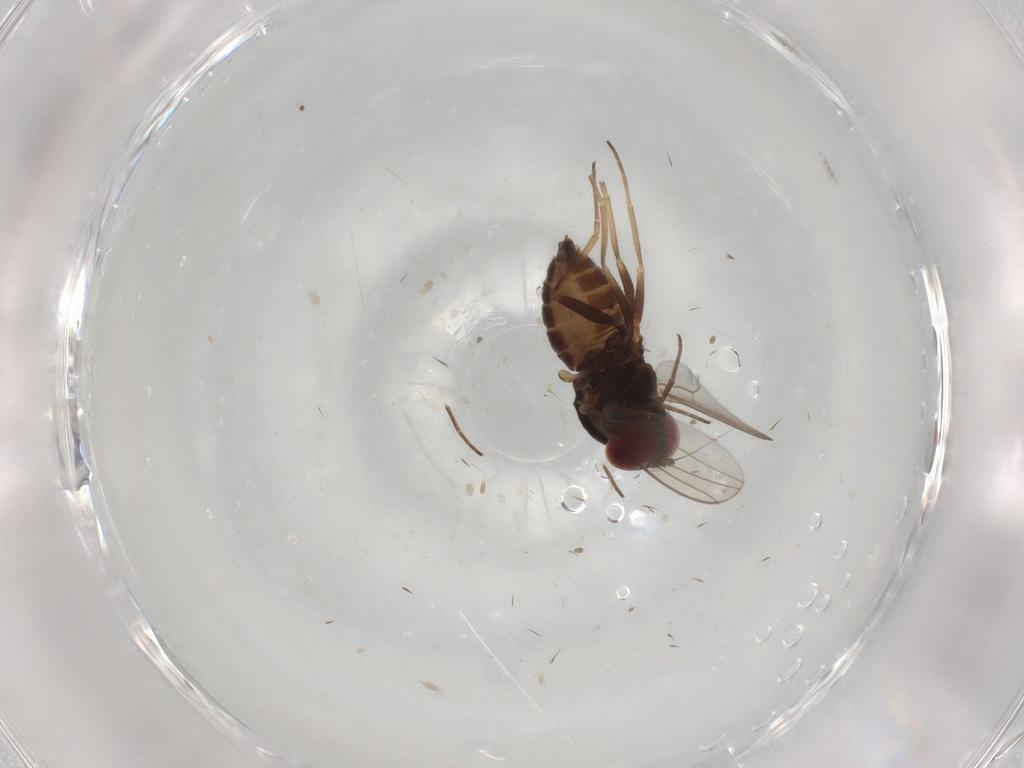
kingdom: Animalia
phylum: Arthropoda
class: Insecta
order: Diptera
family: Dolichopodidae
